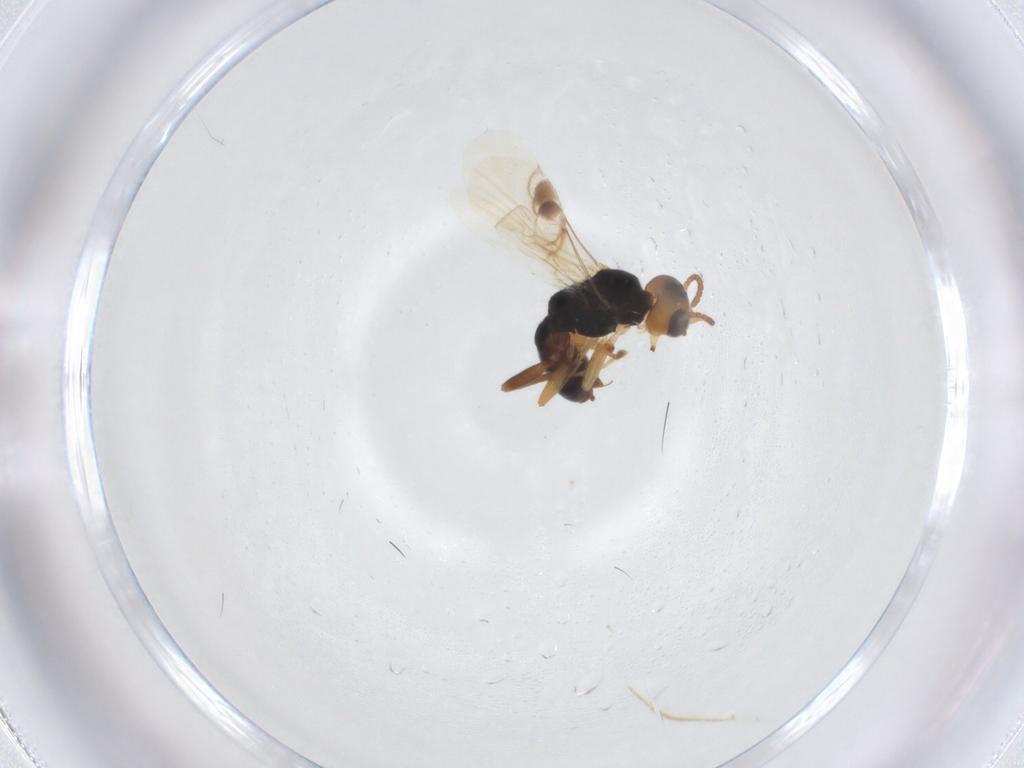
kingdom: Animalia
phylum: Arthropoda
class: Insecta
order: Hymenoptera
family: Braconidae
